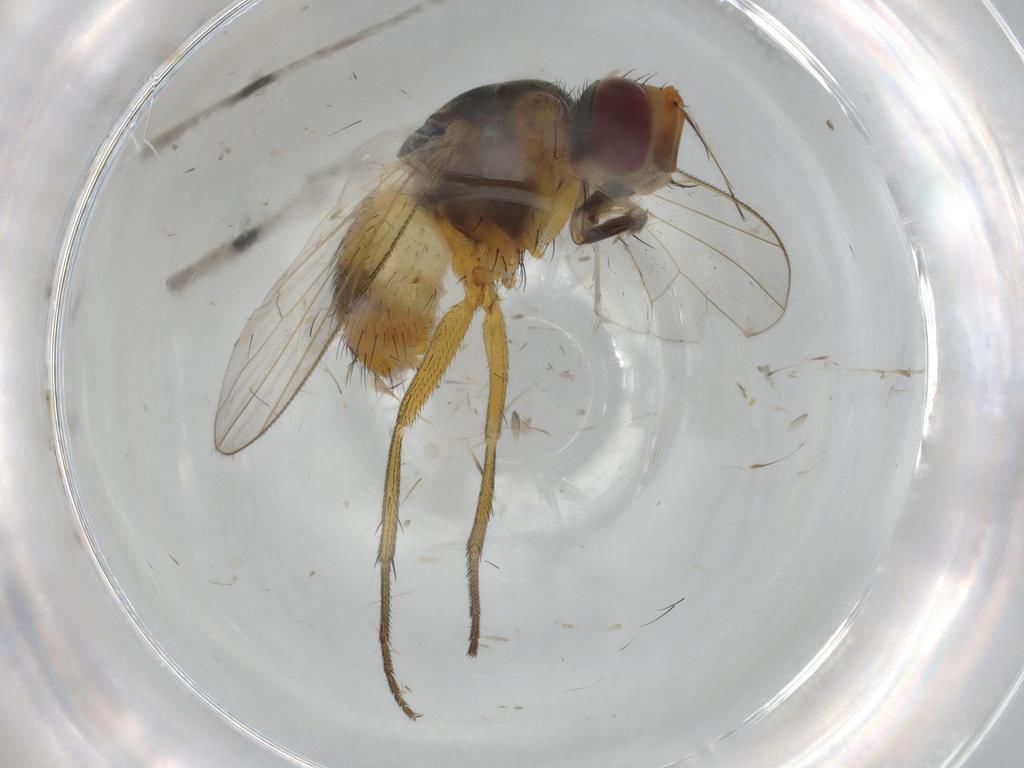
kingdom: Animalia
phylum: Arthropoda
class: Insecta
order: Diptera
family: Muscidae
